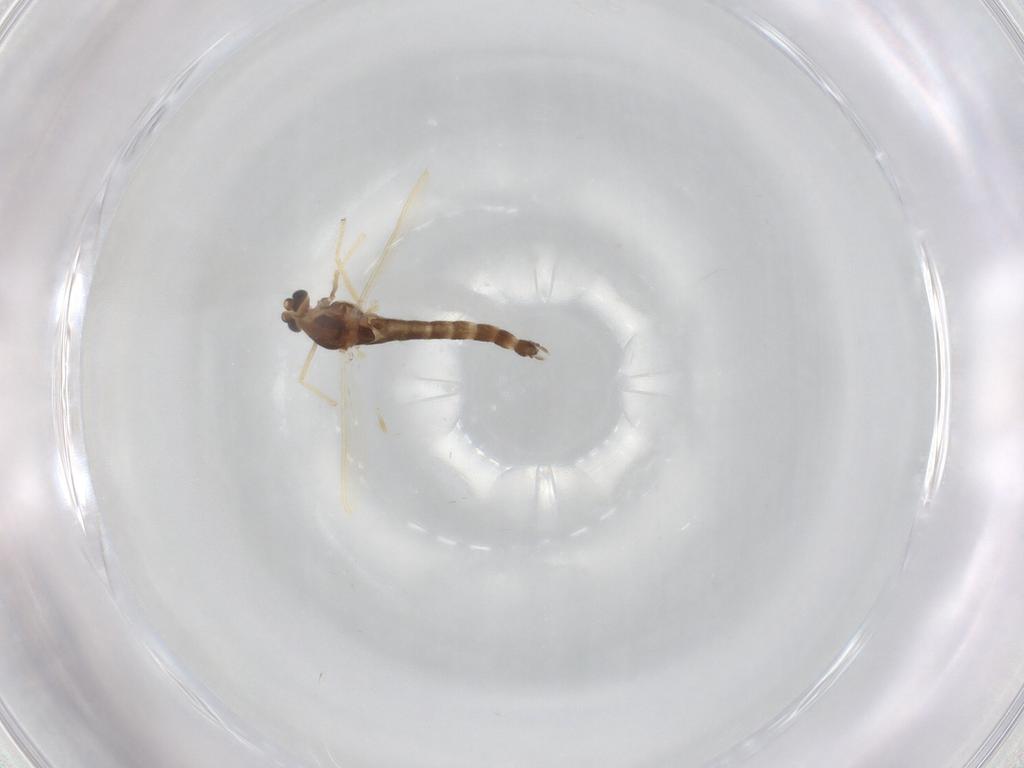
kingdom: Animalia
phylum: Arthropoda
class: Insecta
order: Diptera
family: Chironomidae
